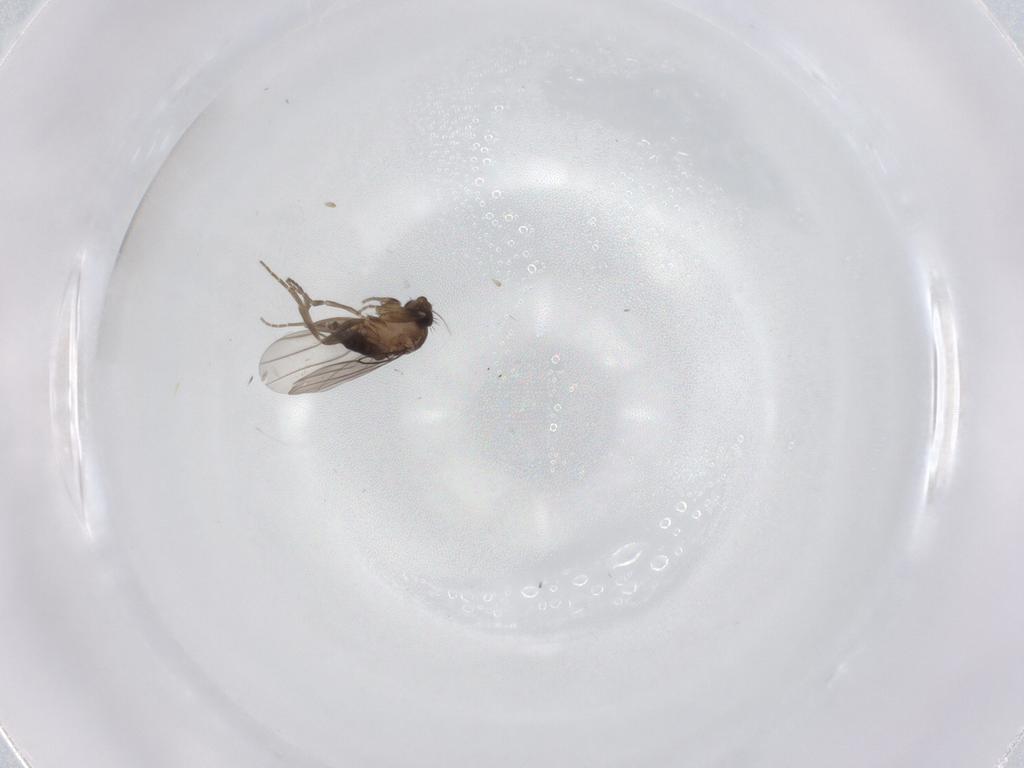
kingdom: Animalia
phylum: Arthropoda
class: Insecta
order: Diptera
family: Phoridae
